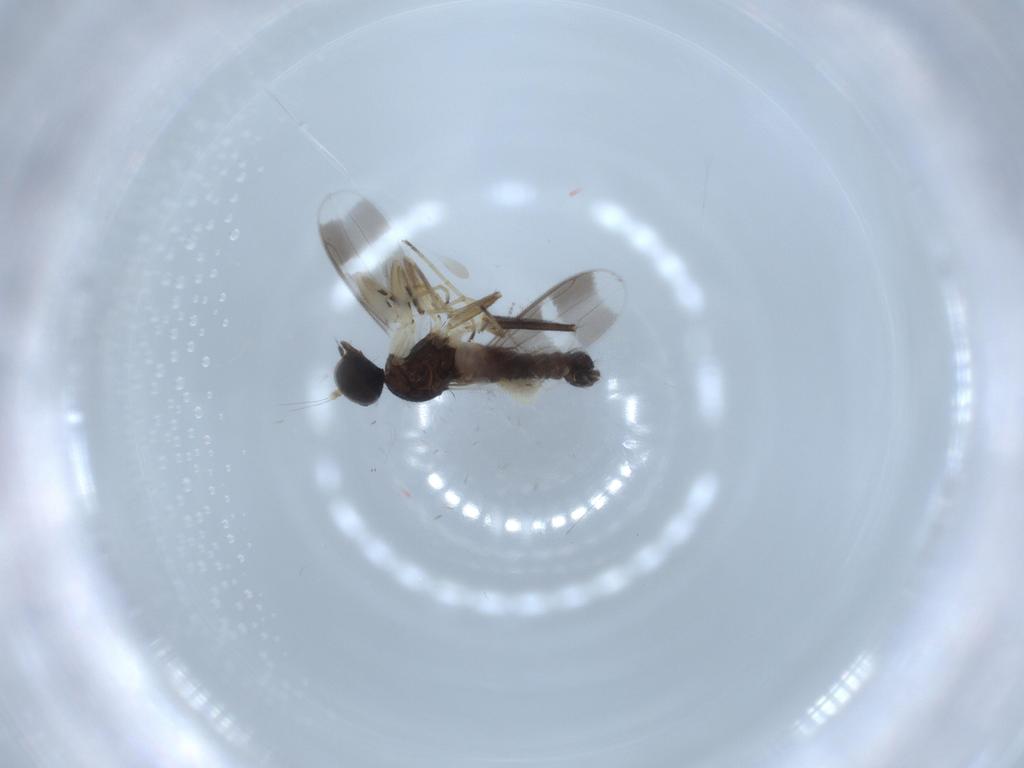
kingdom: Animalia
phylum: Arthropoda
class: Insecta
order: Diptera
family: Hybotidae
